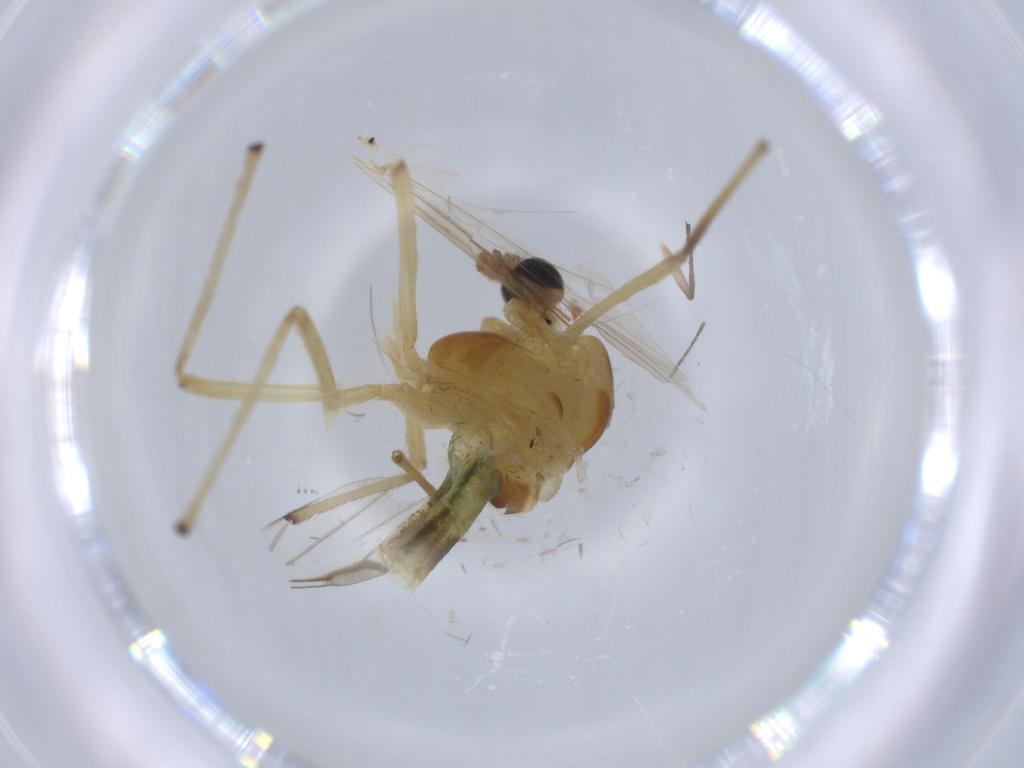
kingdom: Animalia
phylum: Arthropoda
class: Insecta
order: Diptera
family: Chironomidae
